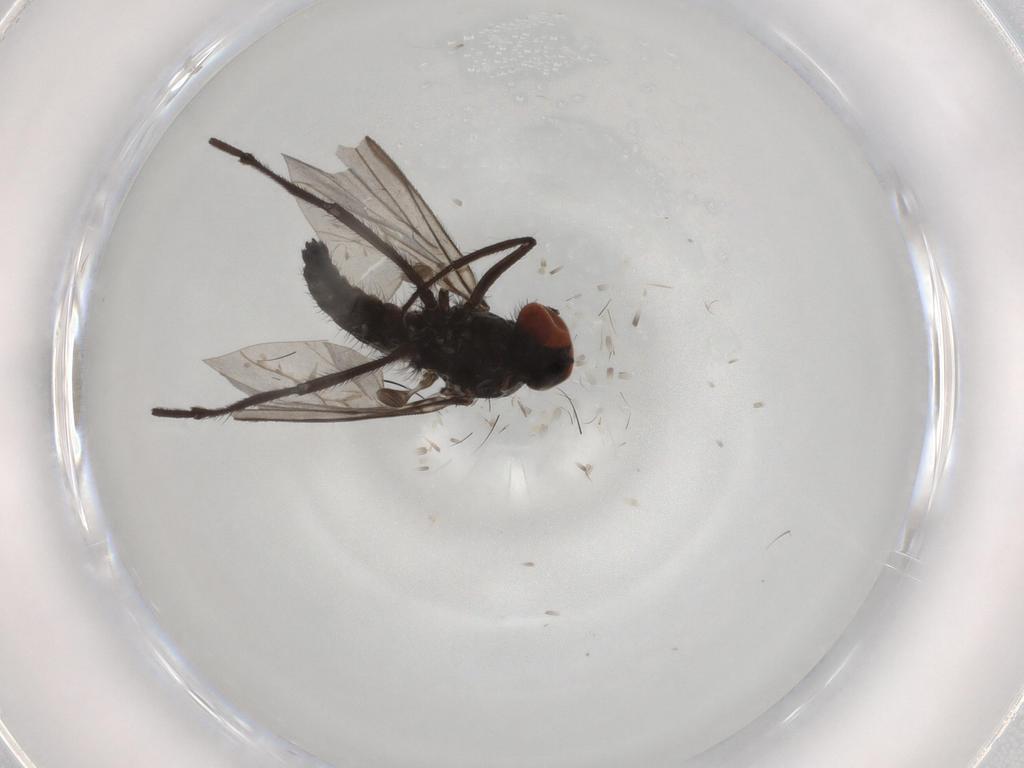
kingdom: Animalia
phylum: Arthropoda
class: Insecta
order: Diptera
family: Hybotidae
